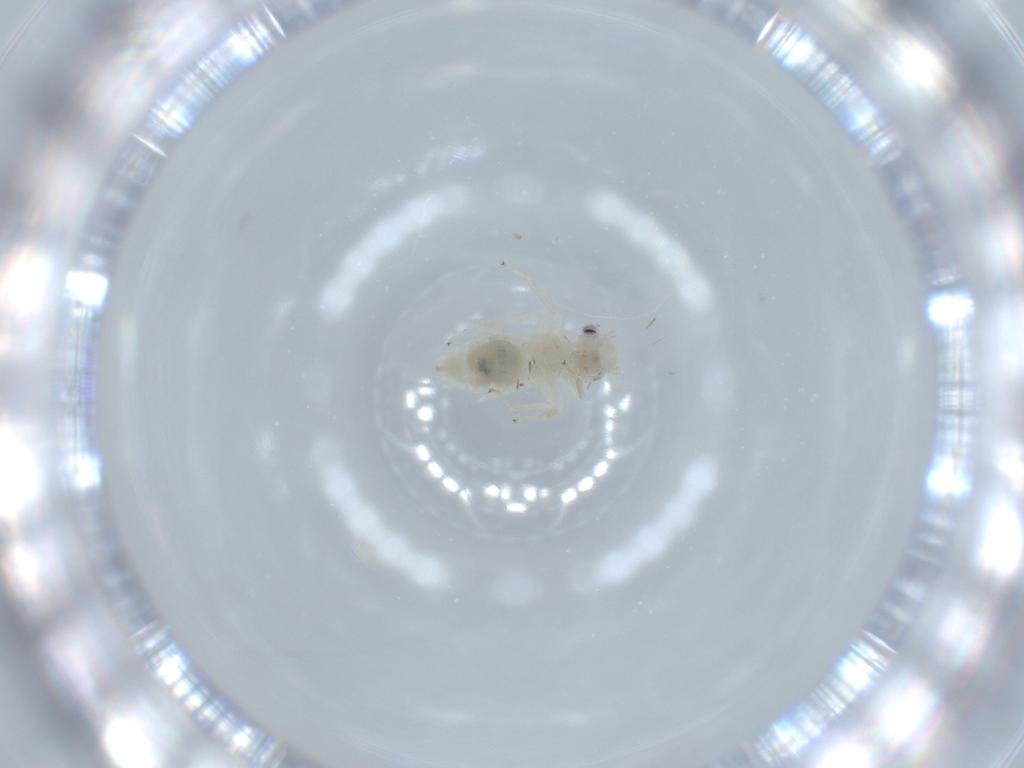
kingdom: Animalia
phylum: Arthropoda
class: Insecta
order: Psocodea
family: Caeciliusidae
